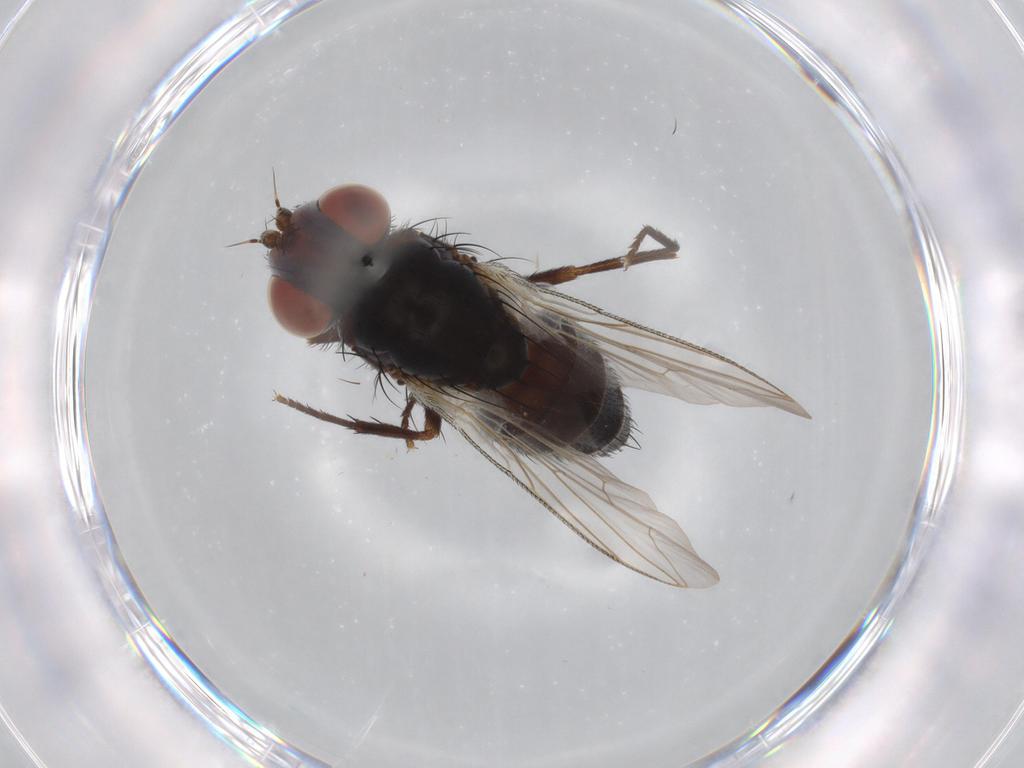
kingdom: Animalia
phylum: Arthropoda
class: Insecta
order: Diptera
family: Sarcophagidae
